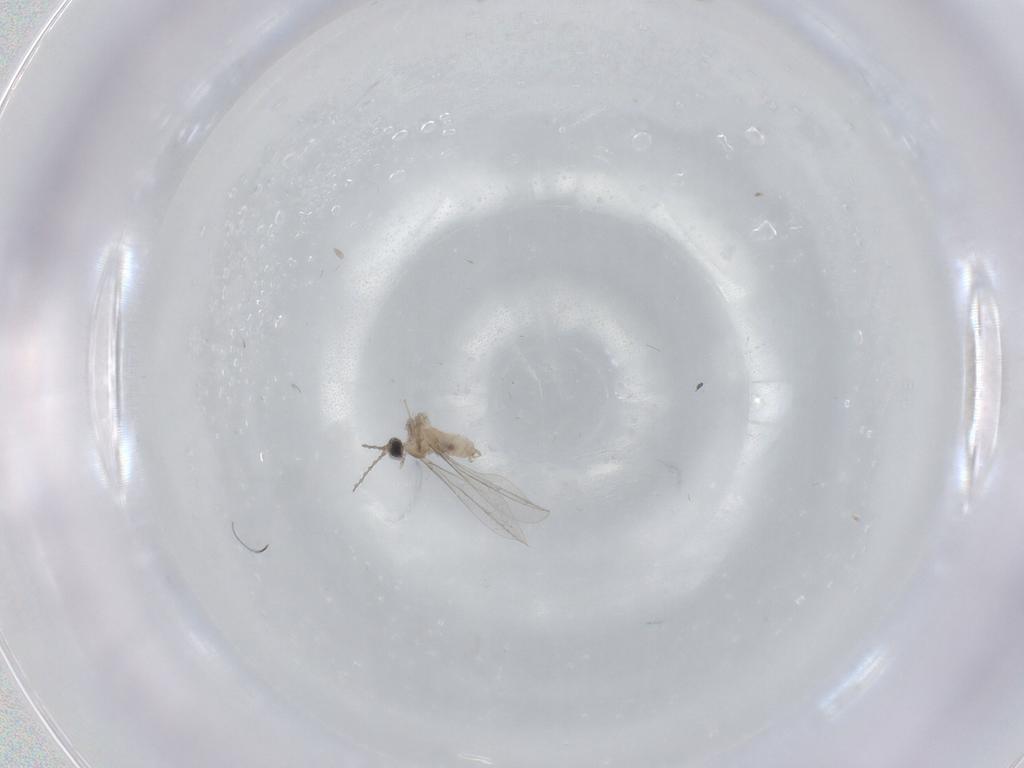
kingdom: Animalia
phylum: Arthropoda
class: Insecta
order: Diptera
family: Cecidomyiidae
